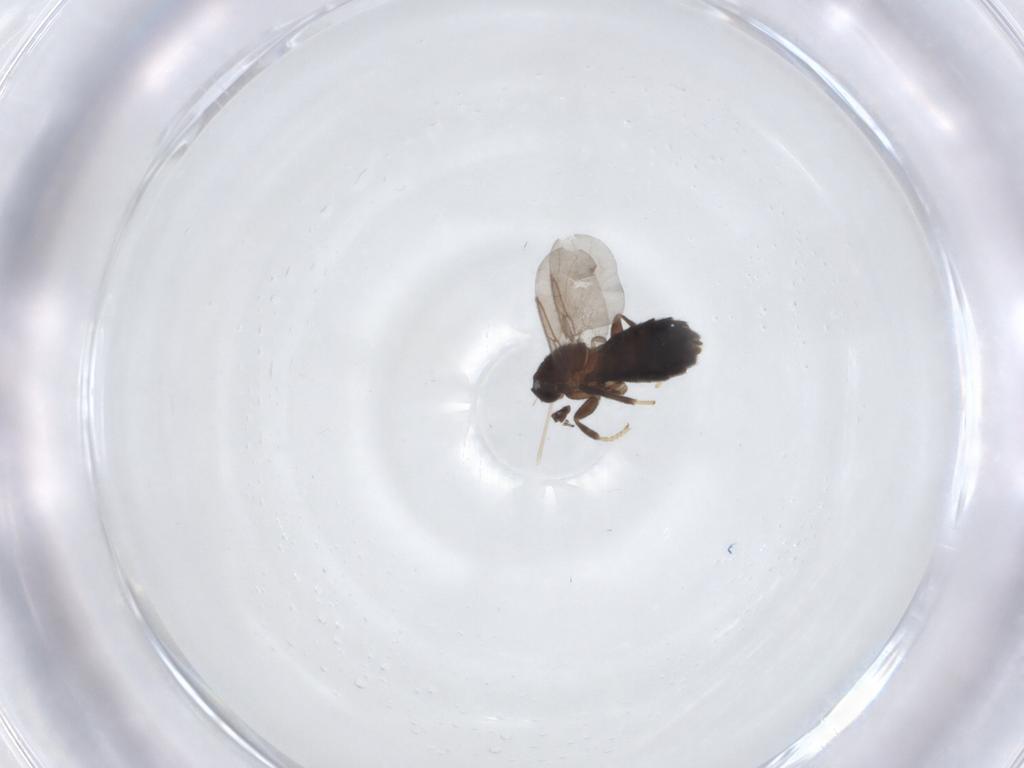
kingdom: Animalia
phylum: Arthropoda
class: Insecta
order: Diptera
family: Scatopsidae
